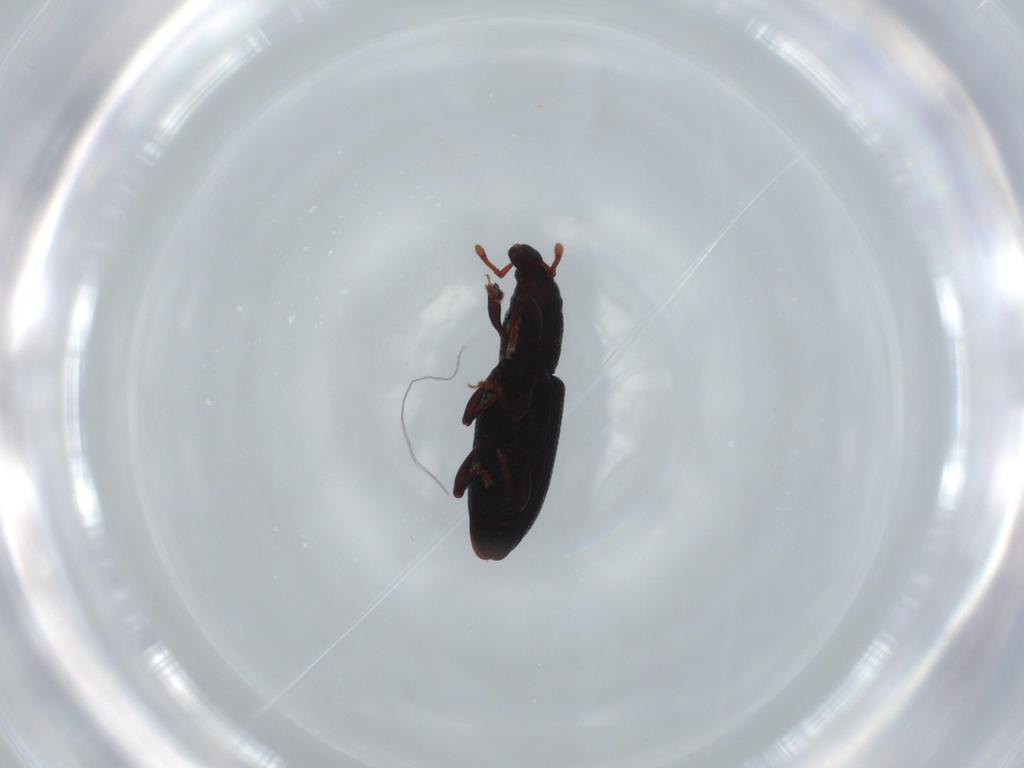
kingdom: Animalia
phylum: Arthropoda
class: Insecta
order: Coleoptera
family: Curculionidae
